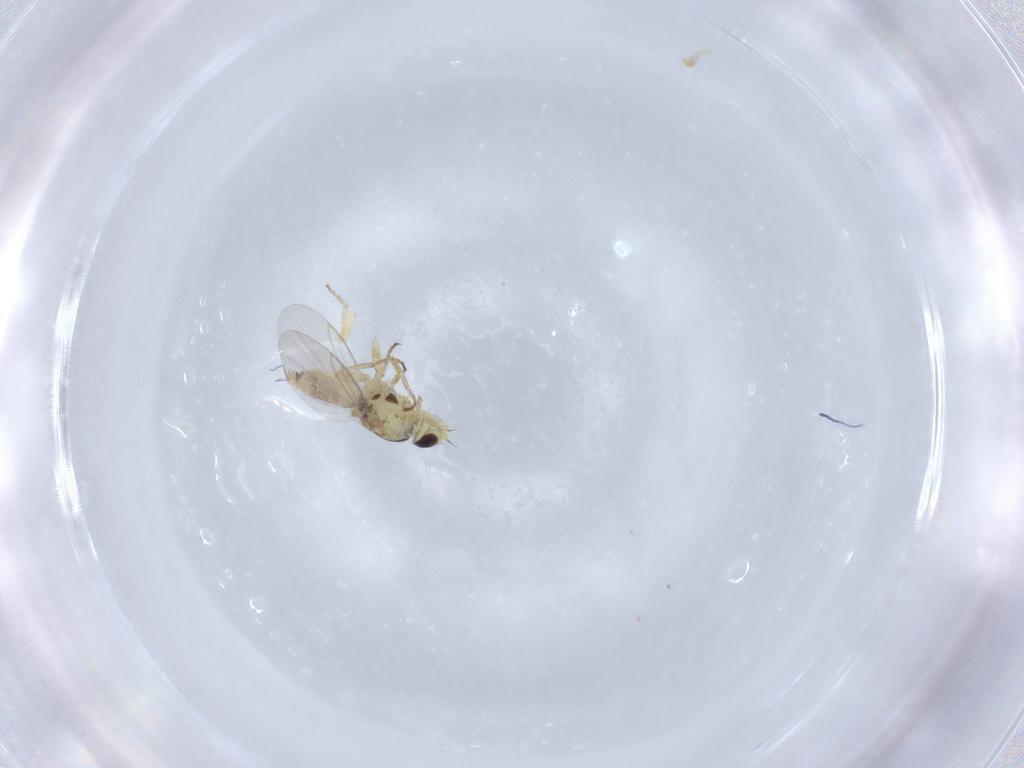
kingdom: Animalia
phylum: Arthropoda
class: Insecta
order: Diptera
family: Agromyzidae
